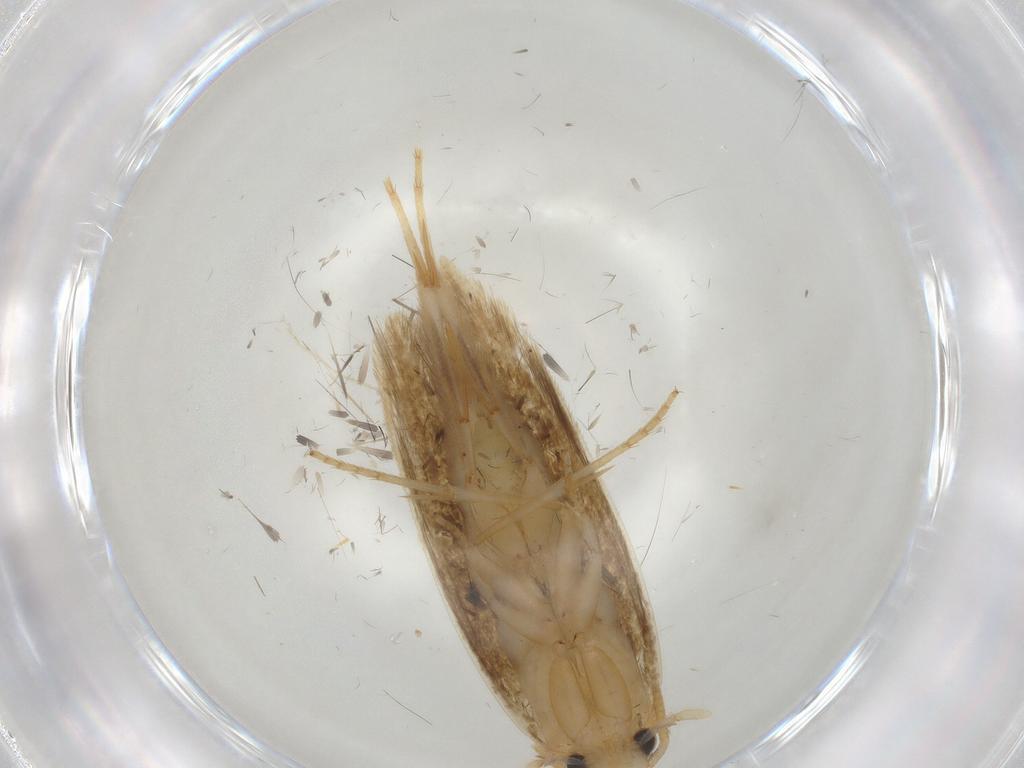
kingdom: Animalia
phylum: Arthropoda
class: Insecta
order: Lepidoptera
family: Cosmopterigidae
